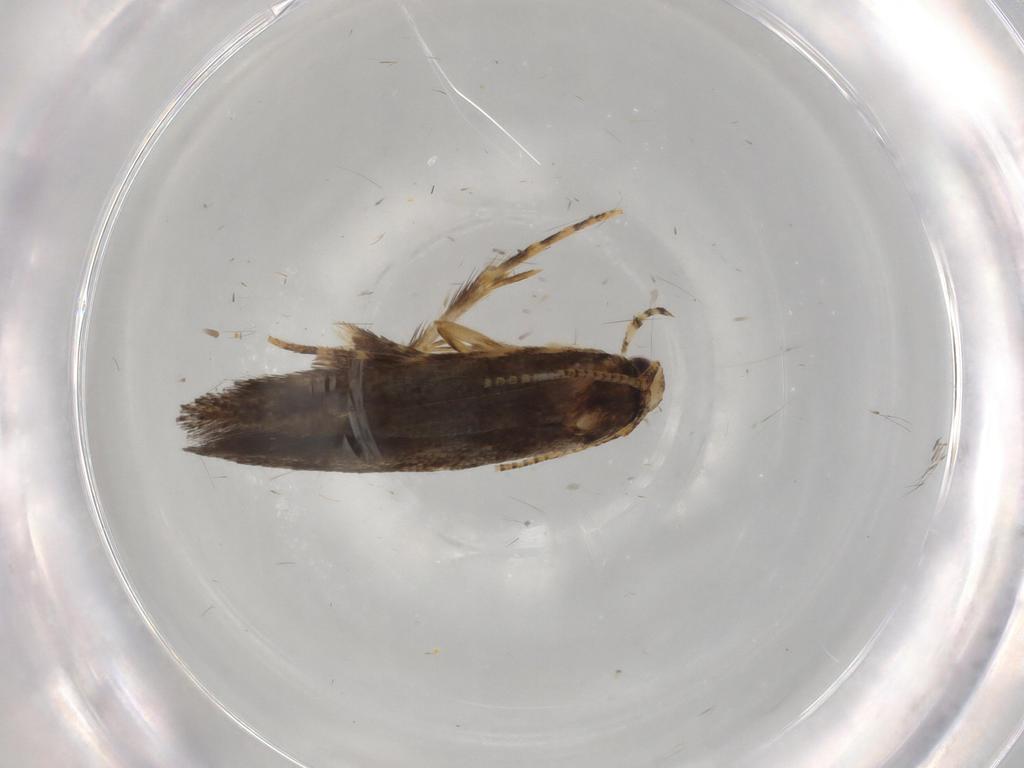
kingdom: Animalia
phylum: Arthropoda
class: Insecta
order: Lepidoptera
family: Gelechiidae
